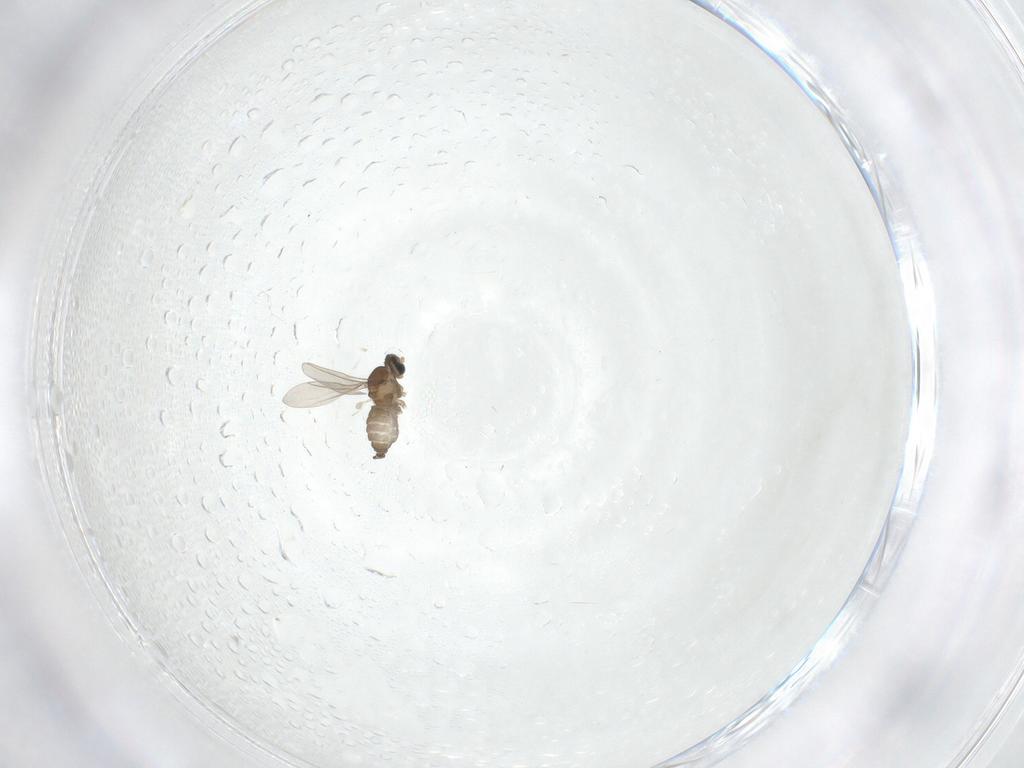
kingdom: Animalia
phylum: Arthropoda
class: Insecta
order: Diptera
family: Cecidomyiidae
